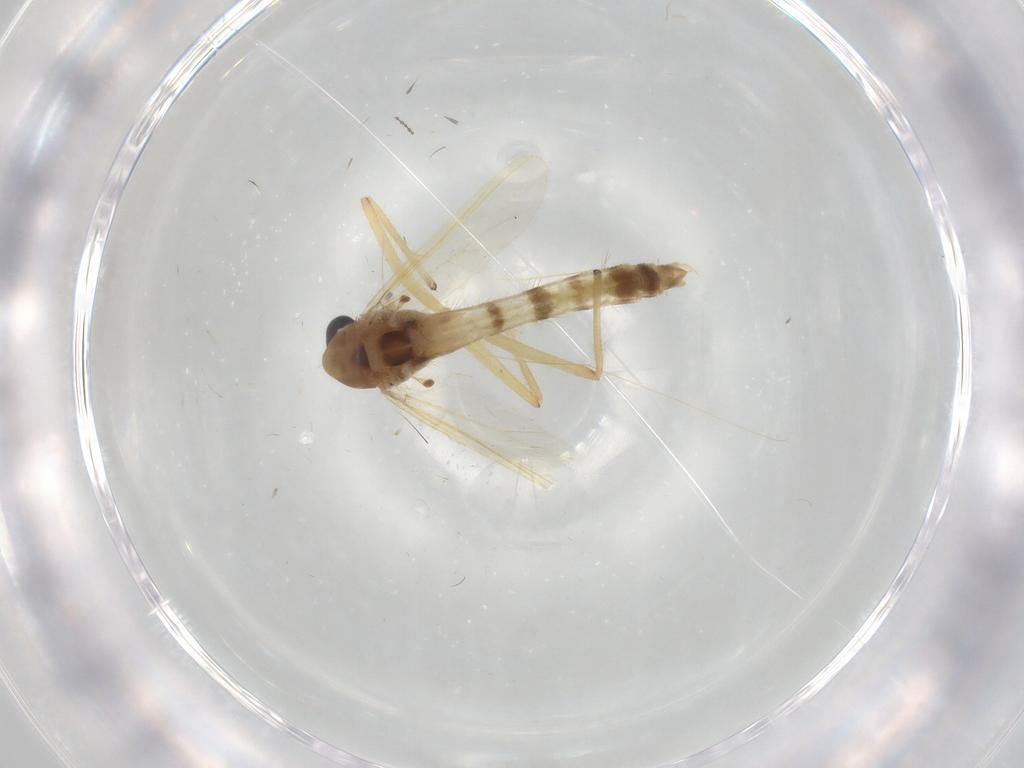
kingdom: Animalia
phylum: Arthropoda
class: Insecta
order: Diptera
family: Chironomidae
